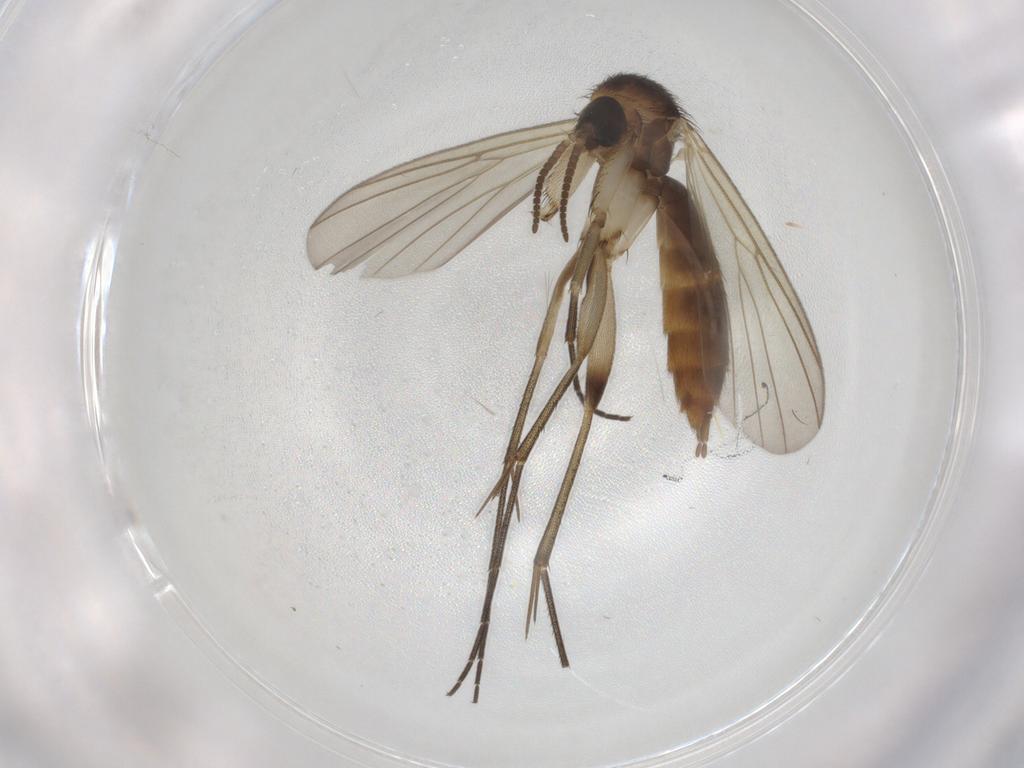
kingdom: Animalia
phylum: Arthropoda
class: Insecta
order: Diptera
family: Mycetophilidae
